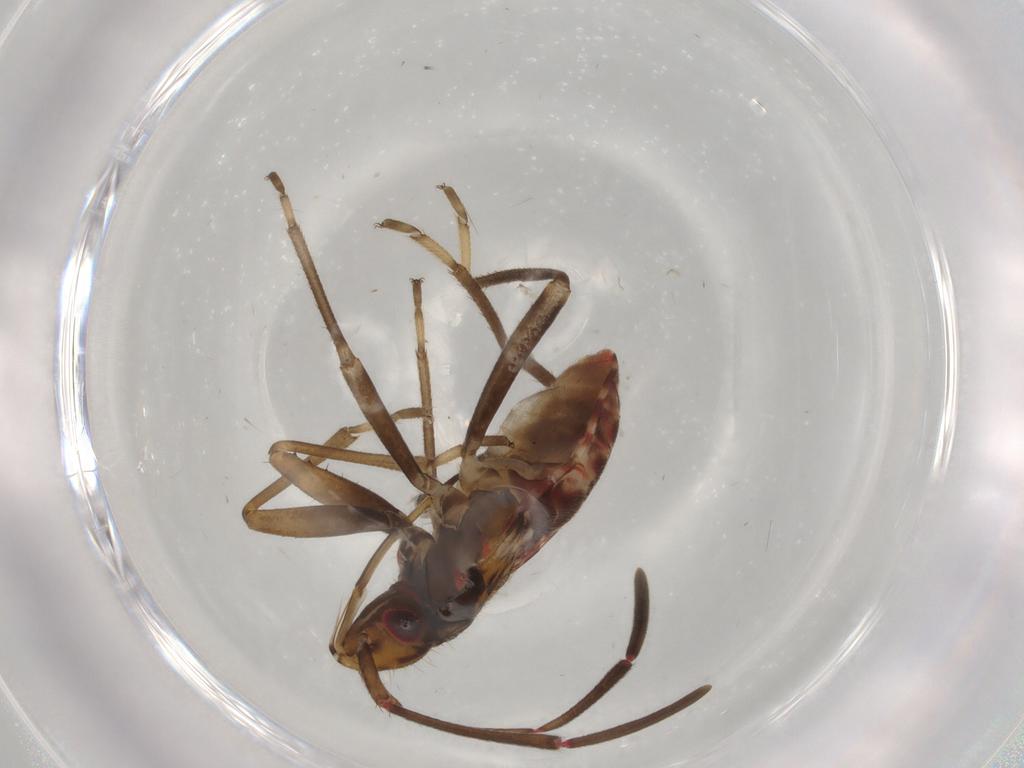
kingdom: Animalia
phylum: Arthropoda
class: Insecta
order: Hemiptera
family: Rhyparochromidae
